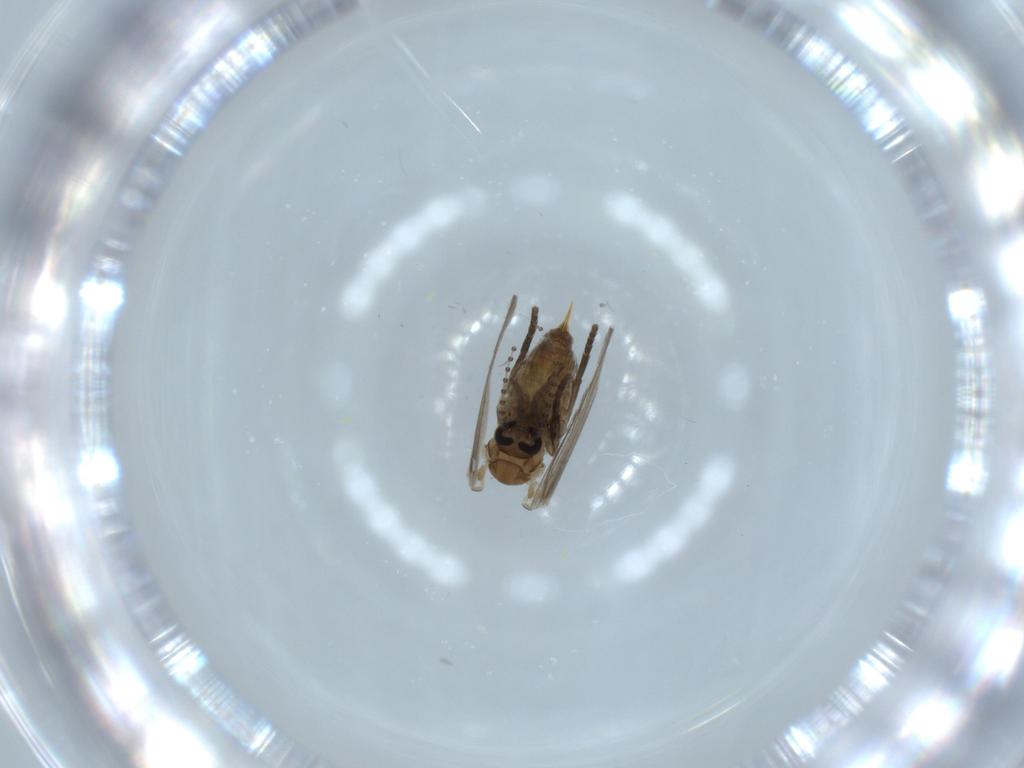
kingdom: Animalia
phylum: Arthropoda
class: Insecta
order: Diptera
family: Psychodidae
